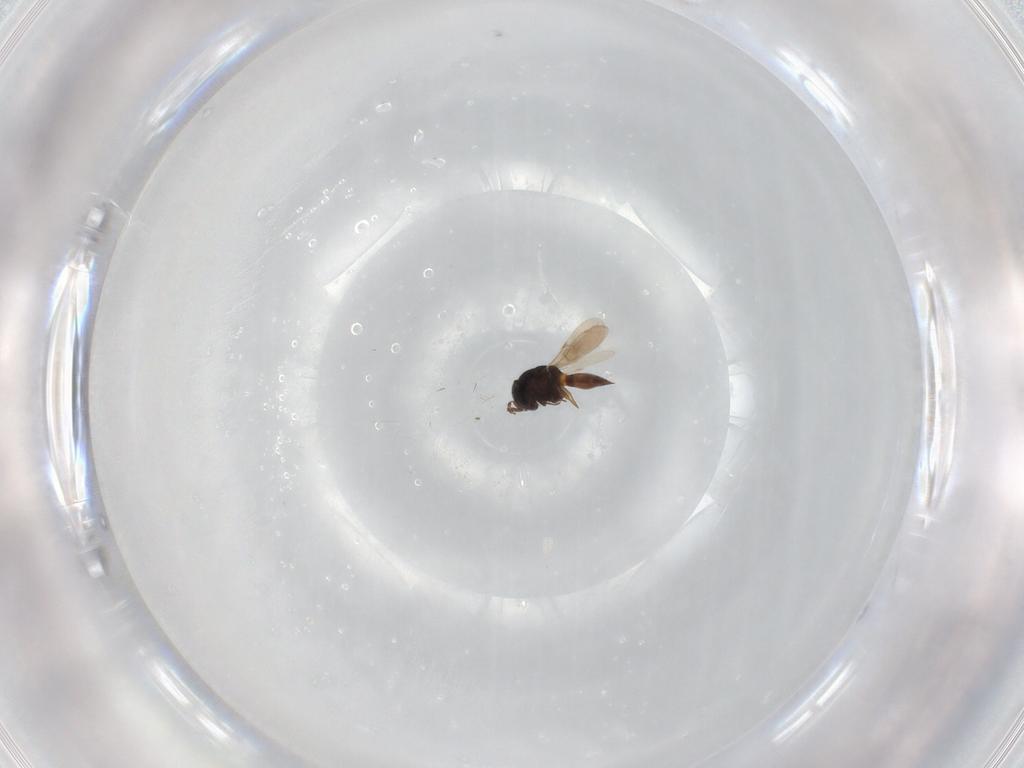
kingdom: Animalia
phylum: Arthropoda
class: Insecta
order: Hymenoptera
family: Scelionidae
